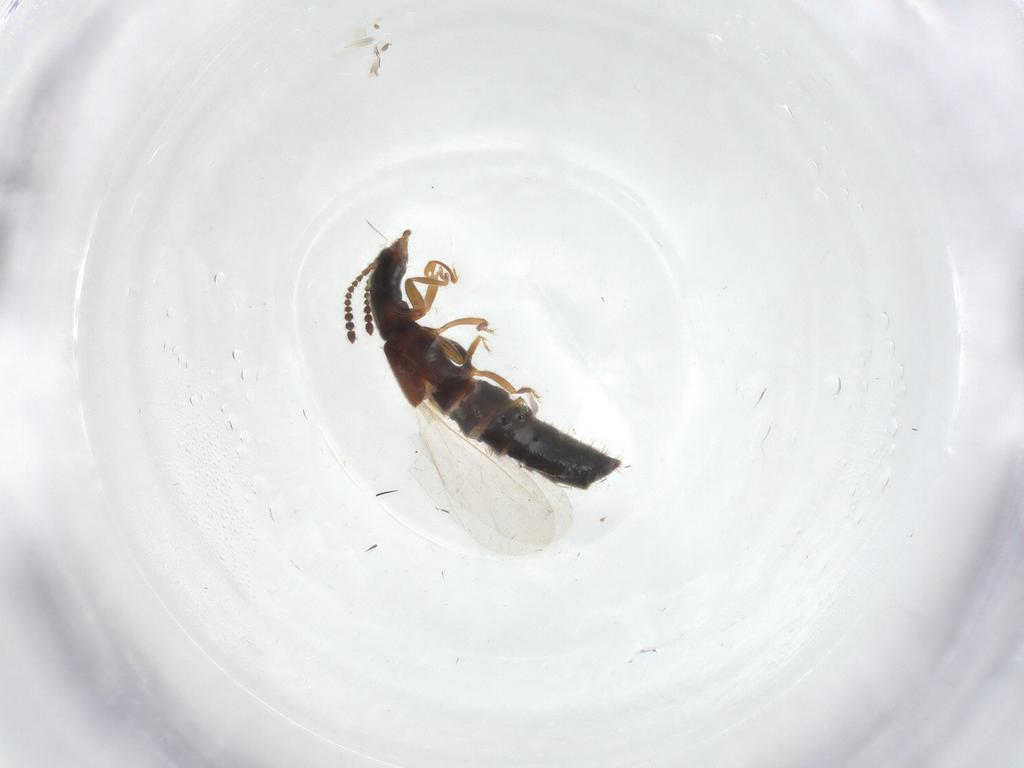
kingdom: Animalia
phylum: Arthropoda
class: Insecta
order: Coleoptera
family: Staphylinidae
